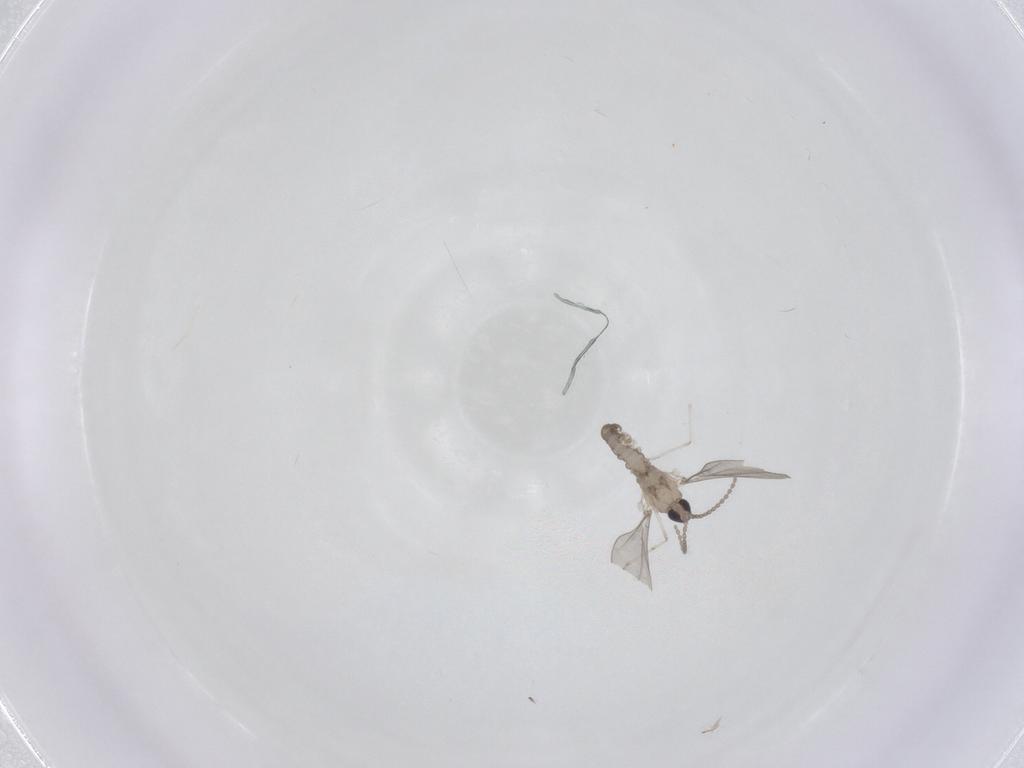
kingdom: Animalia
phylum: Arthropoda
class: Insecta
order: Diptera
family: Cecidomyiidae
